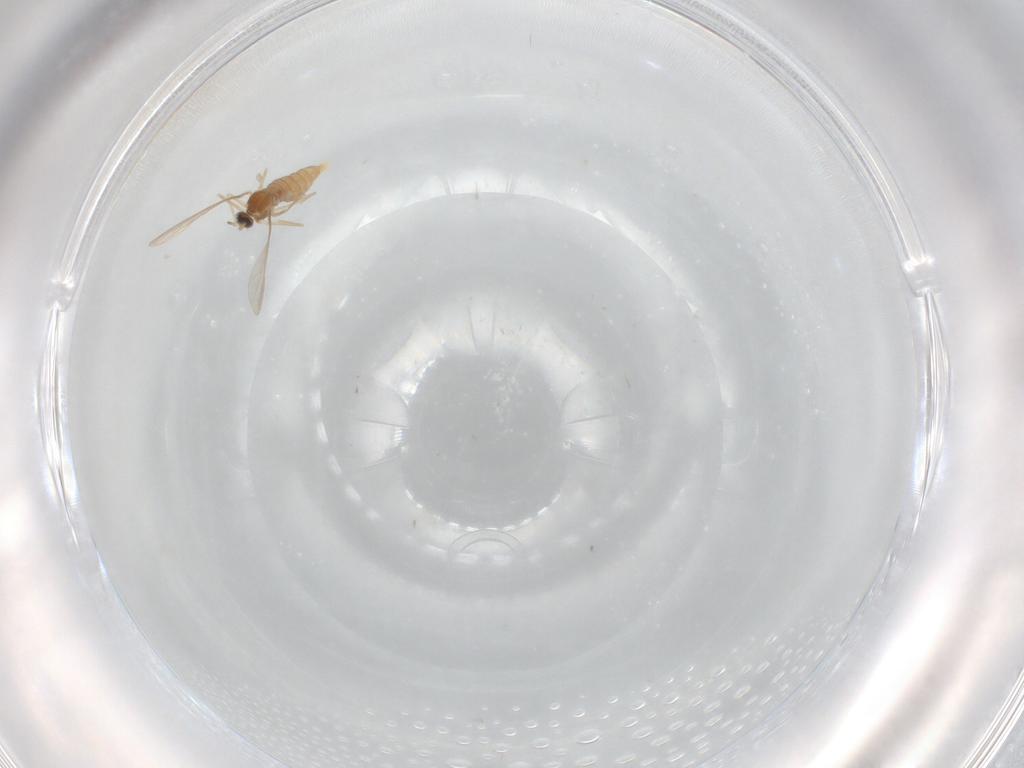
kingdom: Animalia
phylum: Arthropoda
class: Insecta
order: Diptera
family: Cecidomyiidae
